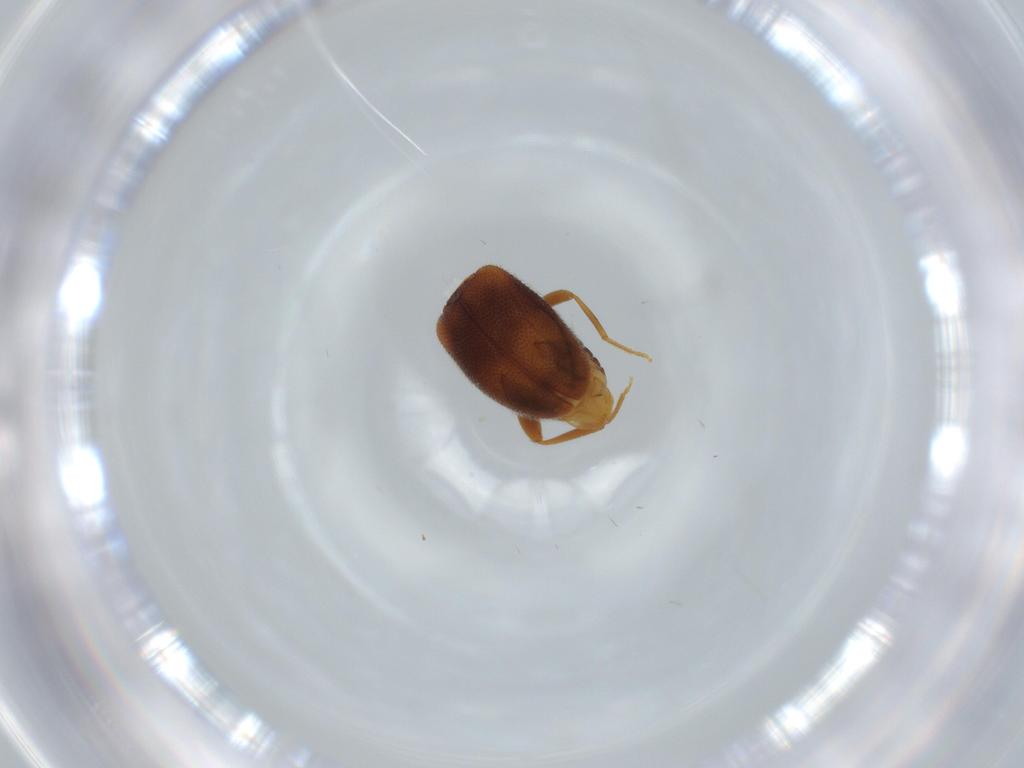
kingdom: Animalia
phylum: Arthropoda
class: Insecta
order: Coleoptera
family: Aderidae
